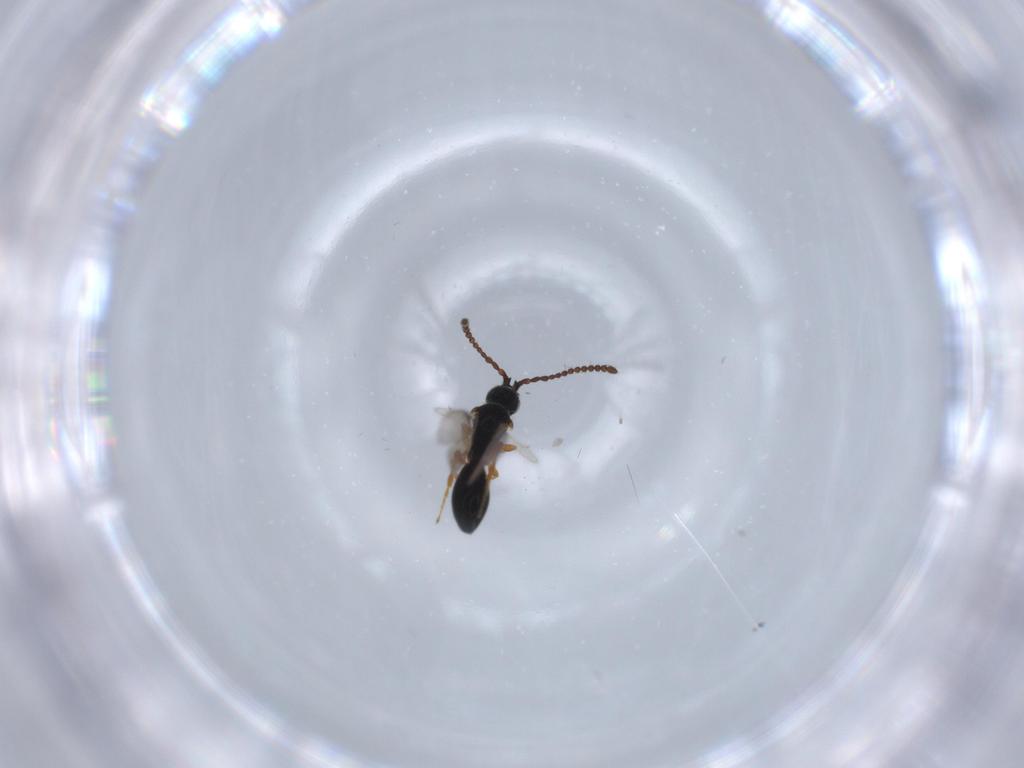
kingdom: Animalia
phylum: Arthropoda
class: Insecta
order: Hymenoptera
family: Diapriidae
